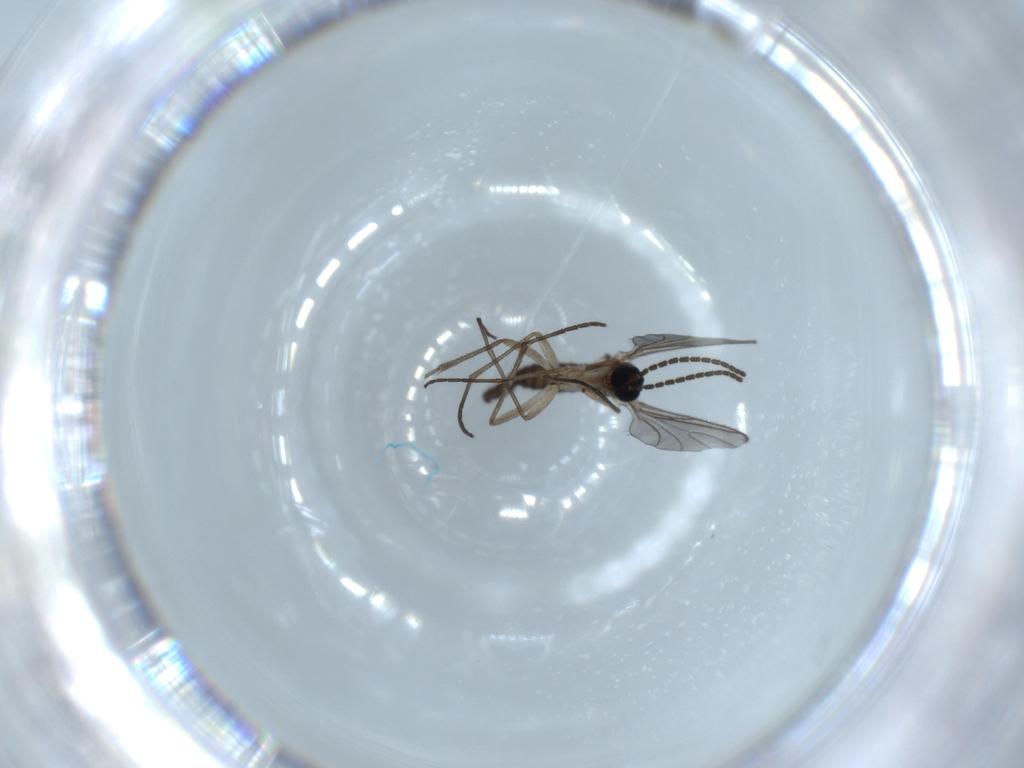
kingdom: Animalia
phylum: Arthropoda
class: Insecta
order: Diptera
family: Sciaridae
